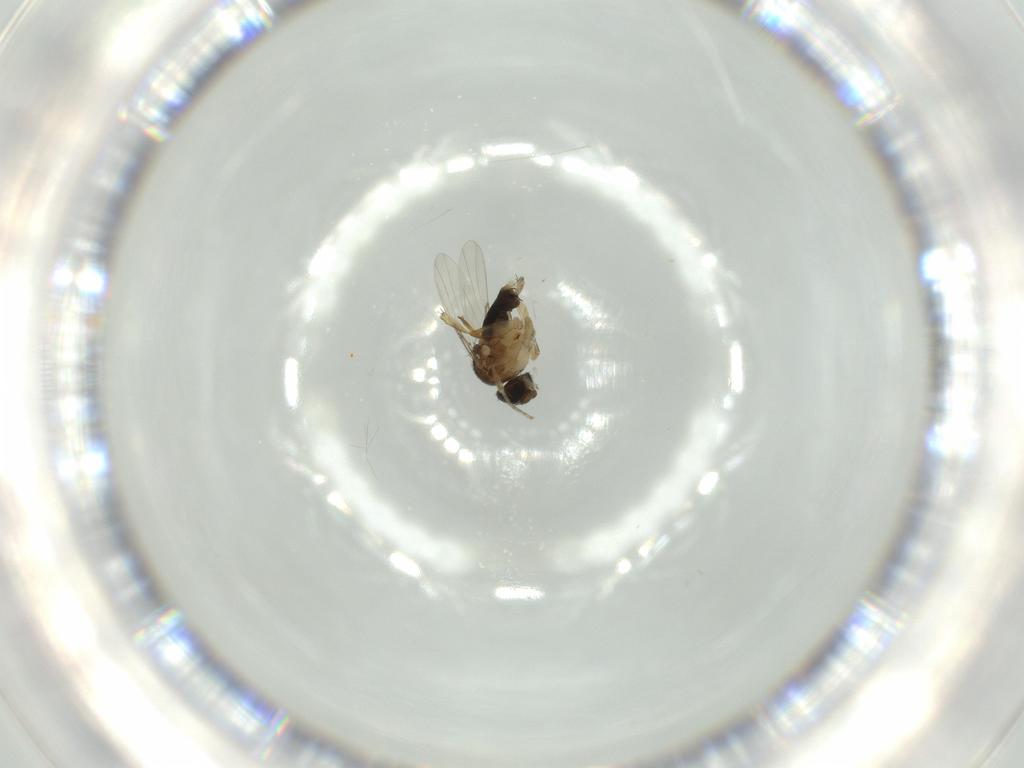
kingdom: Animalia
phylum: Arthropoda
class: Insecta
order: Diptera
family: Phoridae
